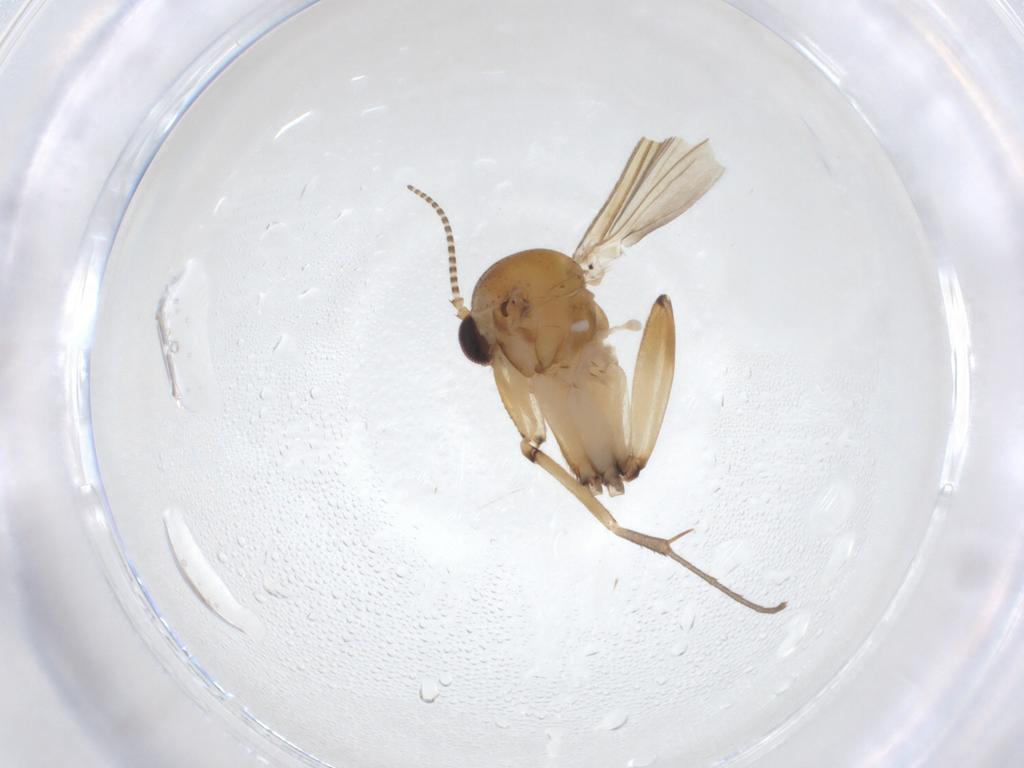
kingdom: Animalia
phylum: Arthropoda
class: Insecta
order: Diptera
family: Mycetophilidae
